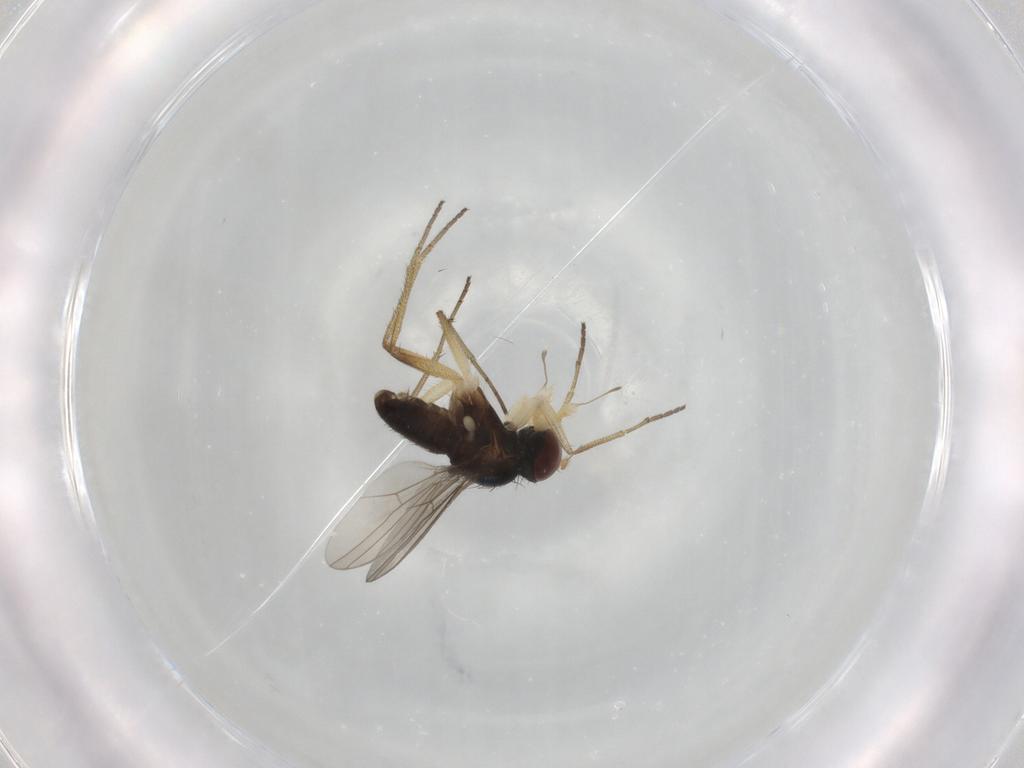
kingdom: Animalia
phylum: Arthropoda
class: Insecta
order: Diptera
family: Dolichopodidae
